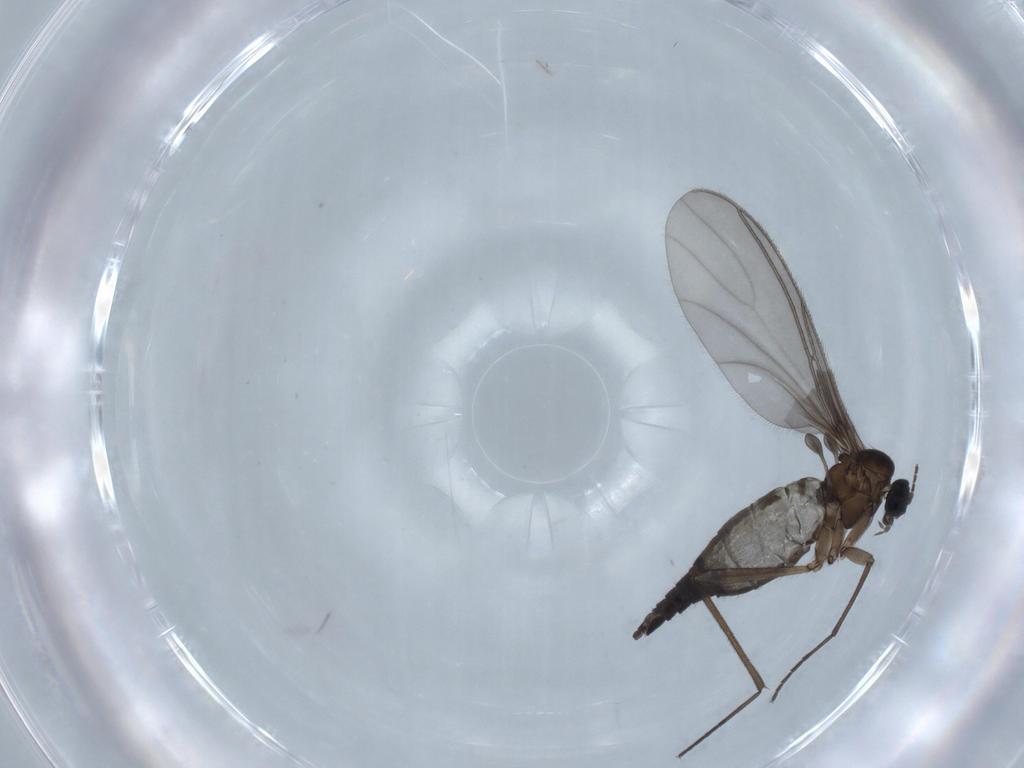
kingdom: Animalia
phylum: Arthropoda
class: Insecta
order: Diptera
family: Sciaridae
